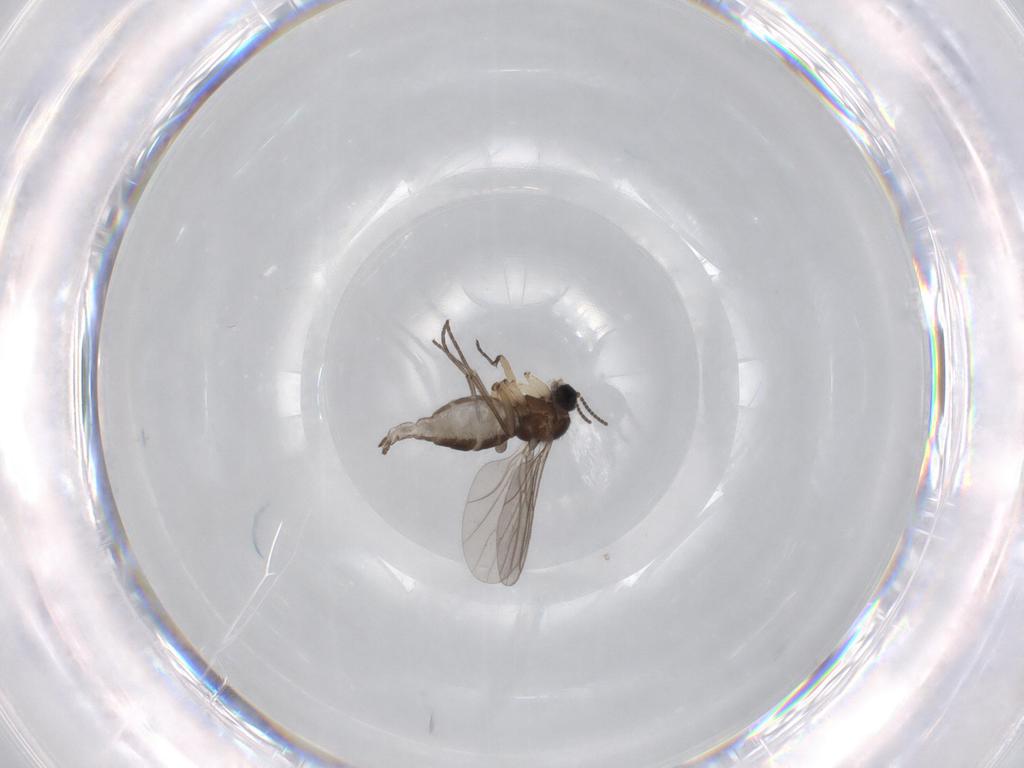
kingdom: Animalia
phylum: Arthropoda
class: Insecta
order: Diptera
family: Sciaridae
